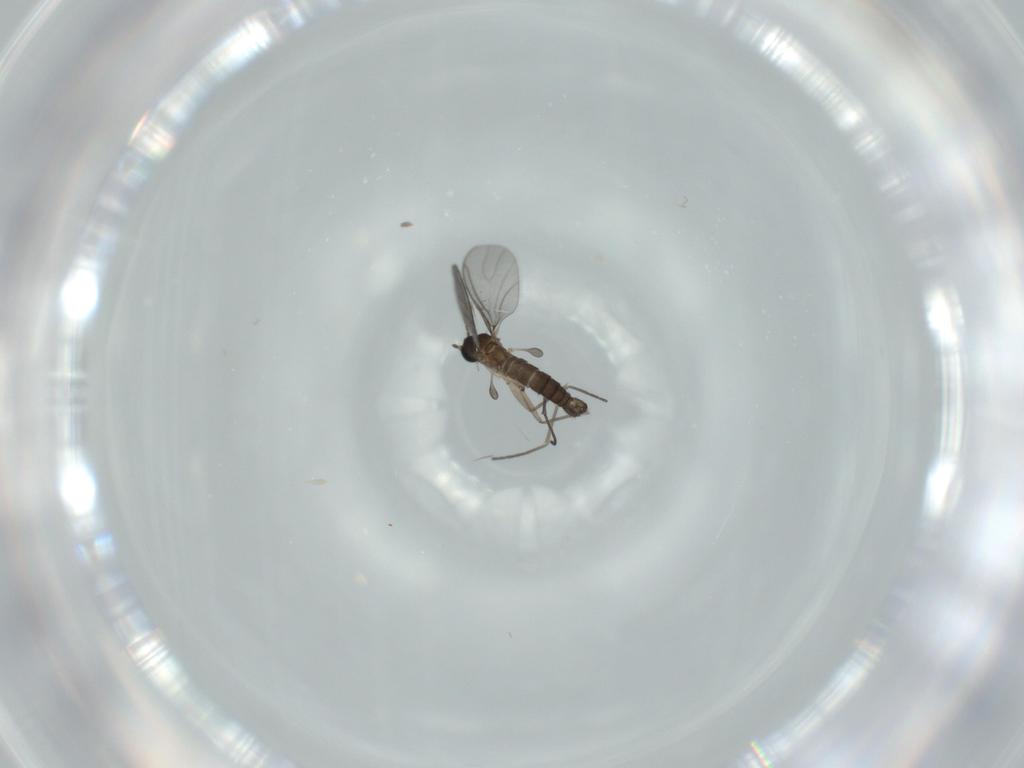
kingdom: Animalia
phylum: Arthropoda
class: Insecta
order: Diptera
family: Sciaridae
